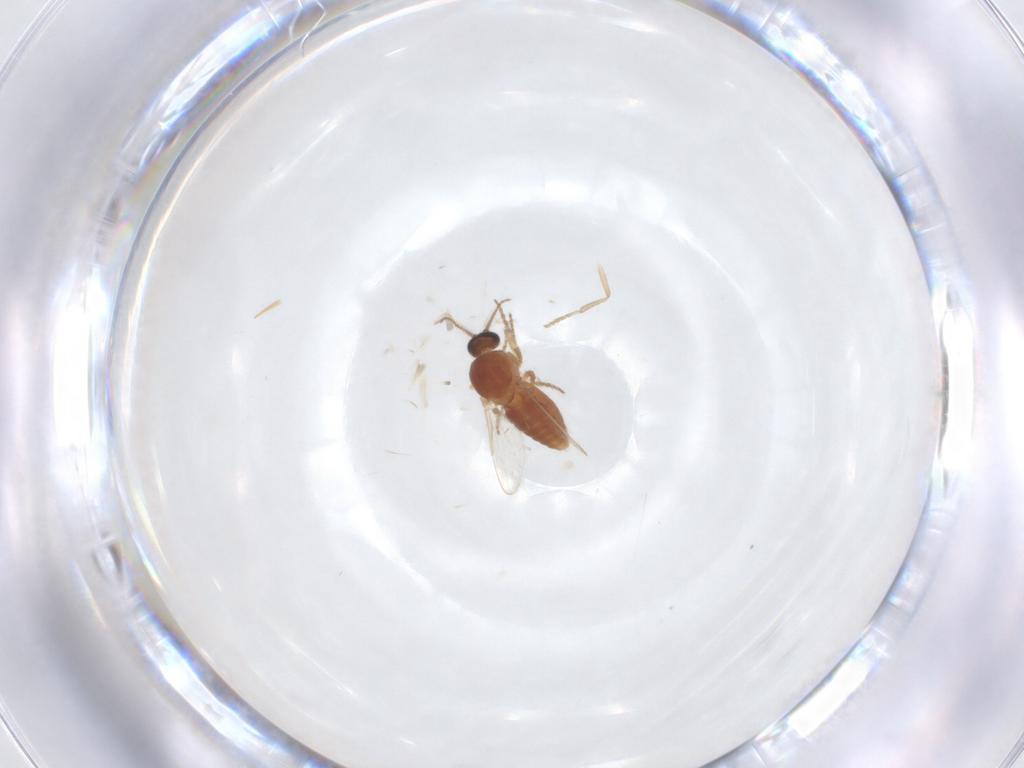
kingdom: Animalia
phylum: Arthropoda
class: Insecta
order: Diptera
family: Ceratopogonidae
